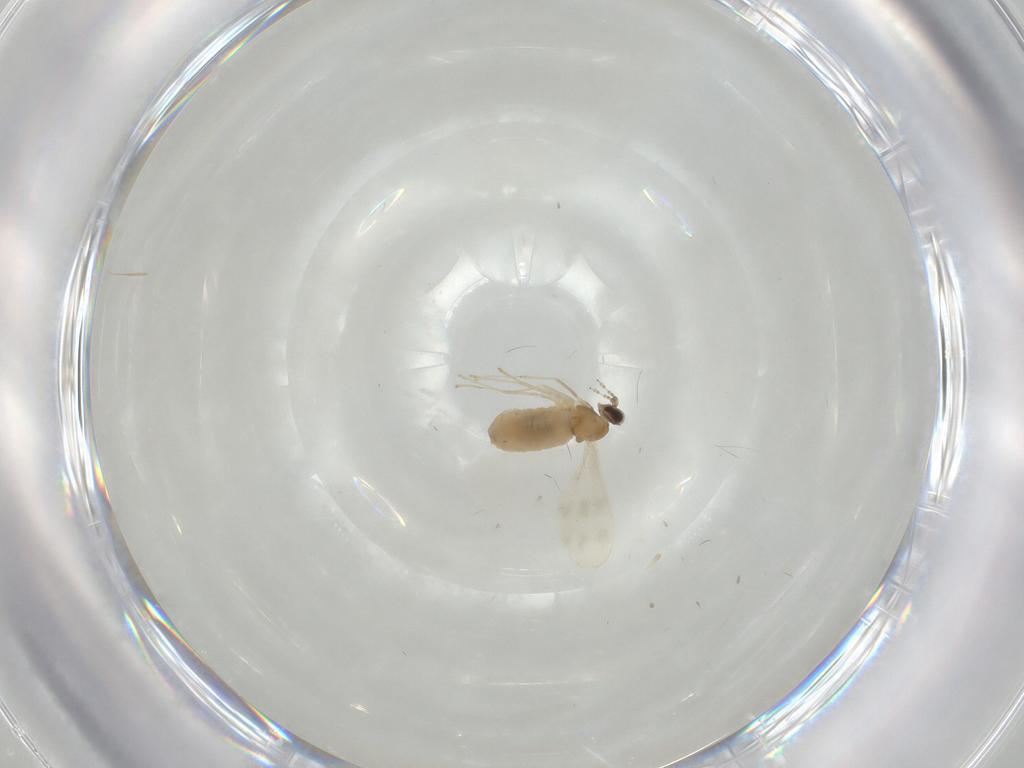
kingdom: Animalia
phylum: Arthropoda
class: Insecta
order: Diptera
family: Cecidomyiidae
